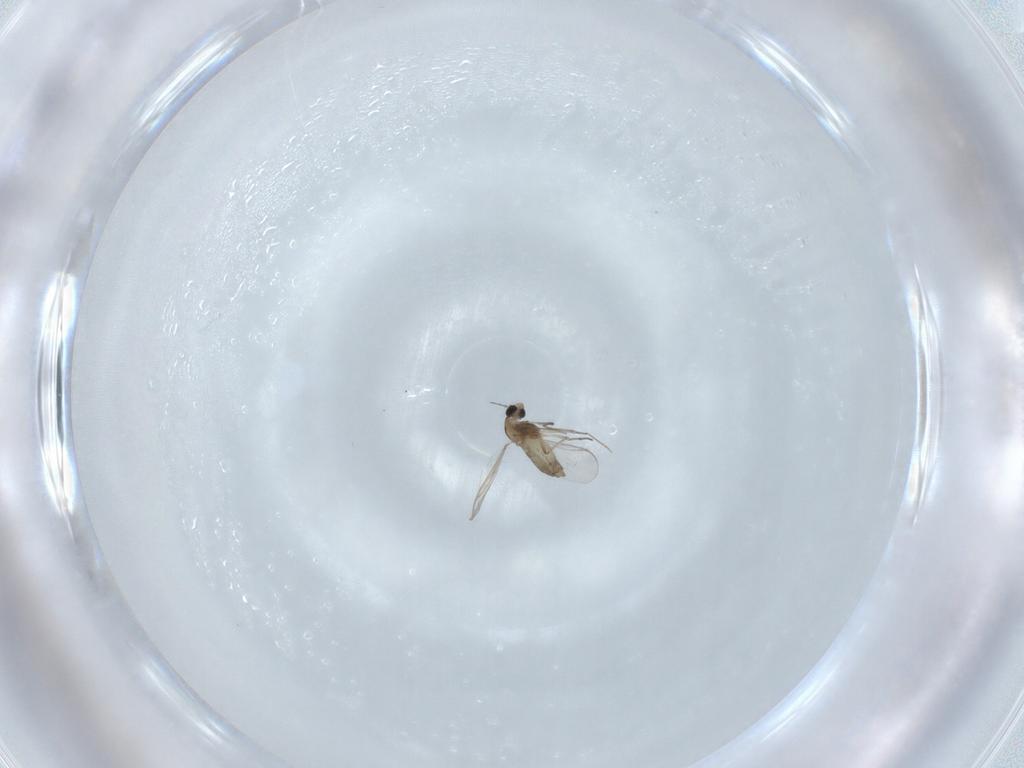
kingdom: Animalia
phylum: Arthropoda
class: Insecta
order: Diptera
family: Chironomidae
